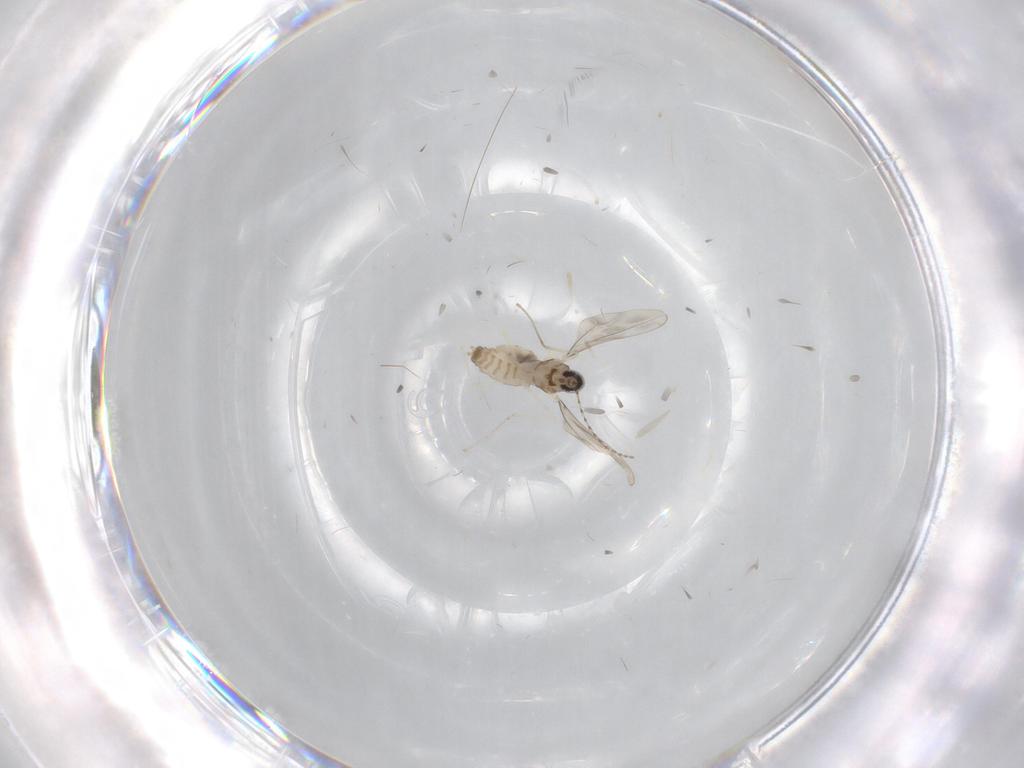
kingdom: Animalia
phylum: Arthropoda
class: Insecta
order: Diptera
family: Cecidomyiidae
